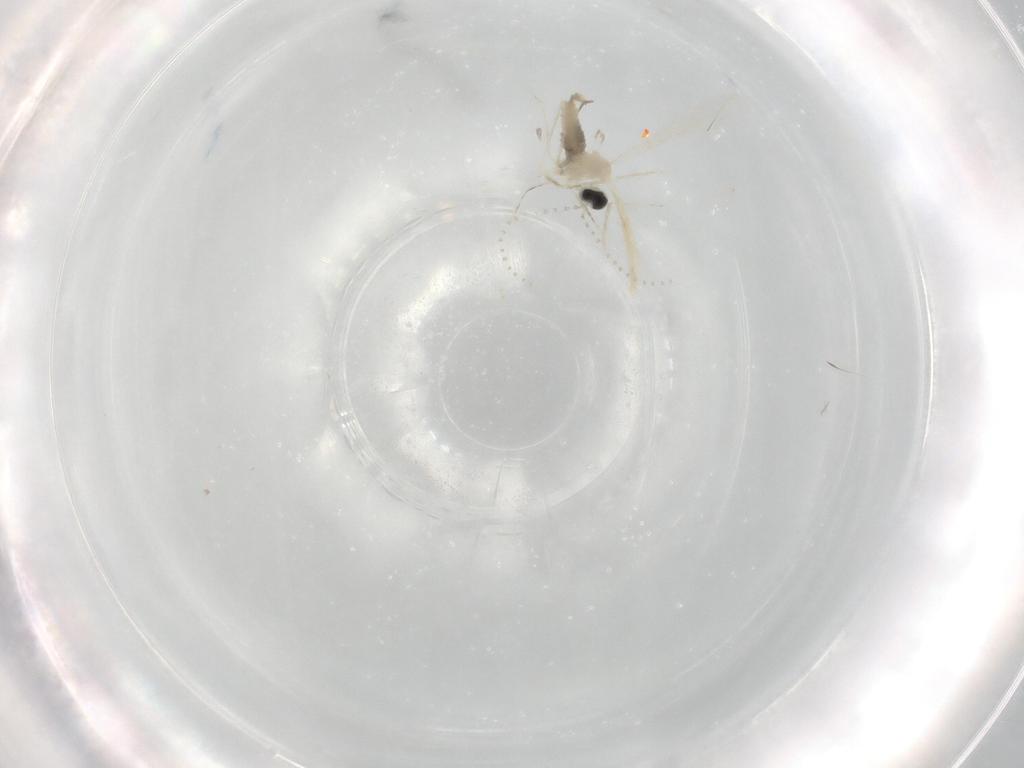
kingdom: Animalia
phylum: Arthropoda
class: Insecta
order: Diptera
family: Cecidomyiidae
